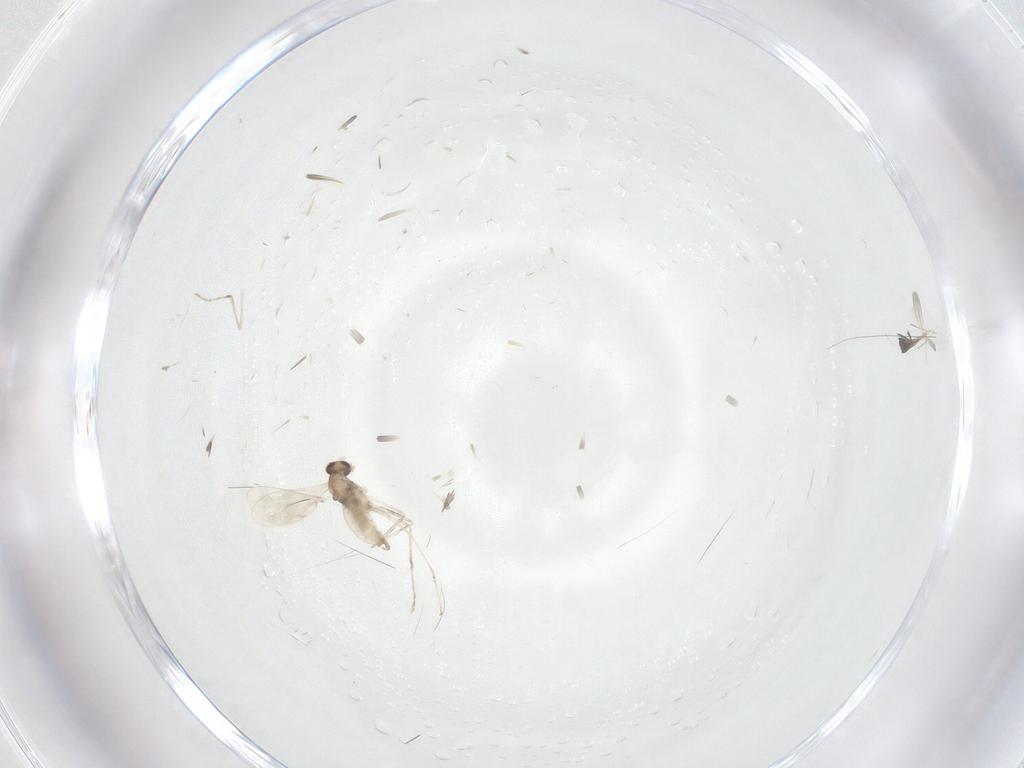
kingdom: Animalia
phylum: Arthropoda
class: Insecta
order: Diptera
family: Cecidomyiidae
